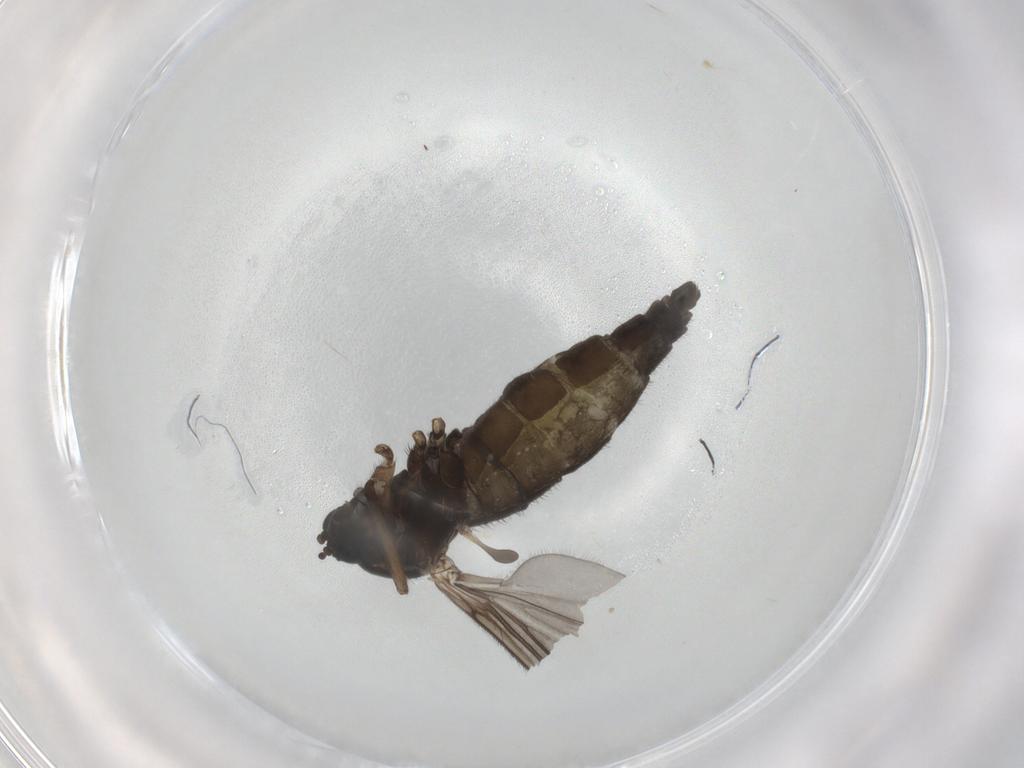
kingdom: Animalia
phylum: Arthropoda
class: Insecta
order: Diptera
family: Sciaridae
